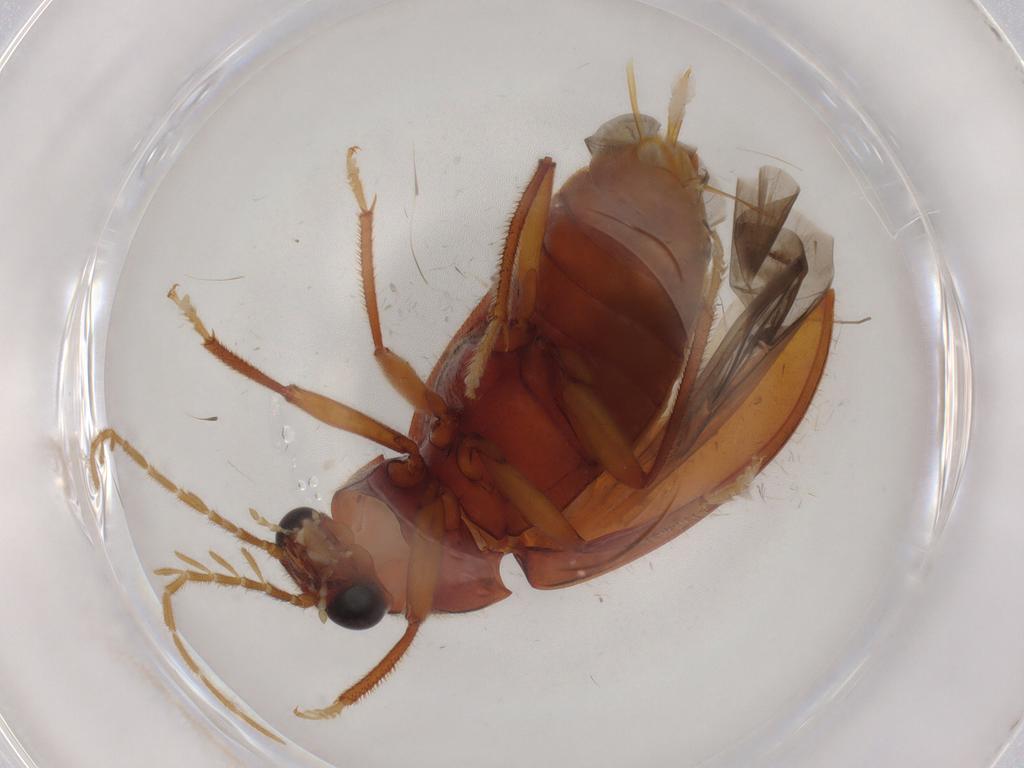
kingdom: Animalia
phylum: Arthropoda
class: Insecta
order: Coleoptera
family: Ptilodactylidae
